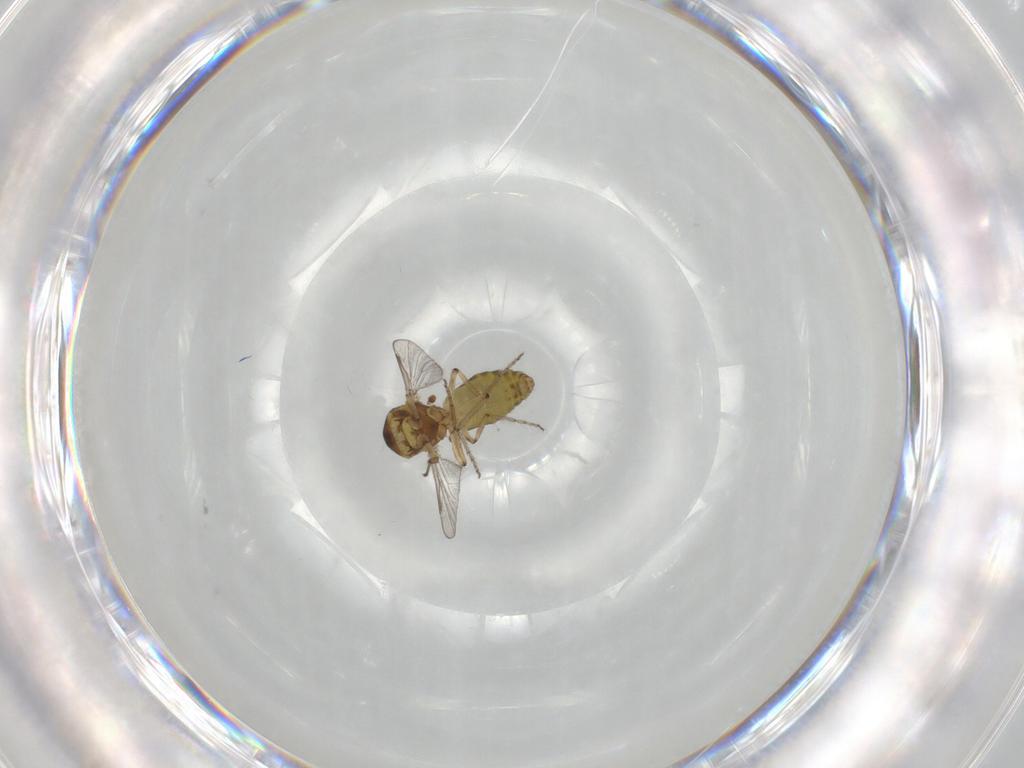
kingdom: Animalia
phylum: Arthropoda
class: Insecta
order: Diptera
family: Ceratopogonidae
